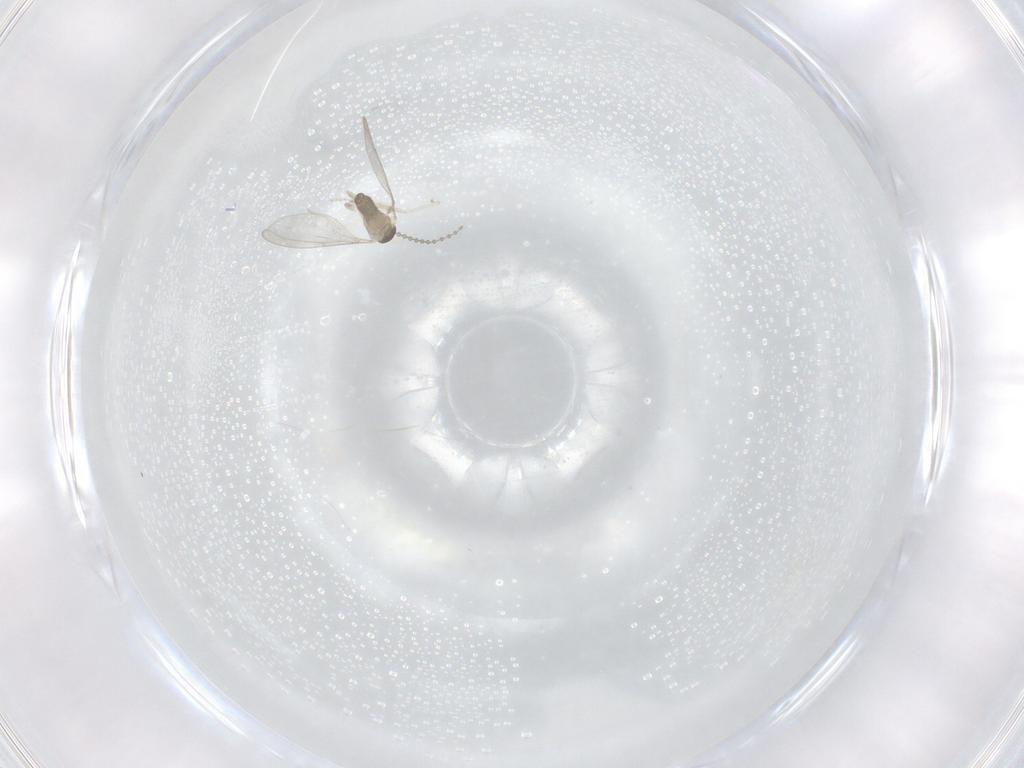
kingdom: Animalia
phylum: Arthropoda
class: Insecta
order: Diptera
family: Cecidomyiidae
